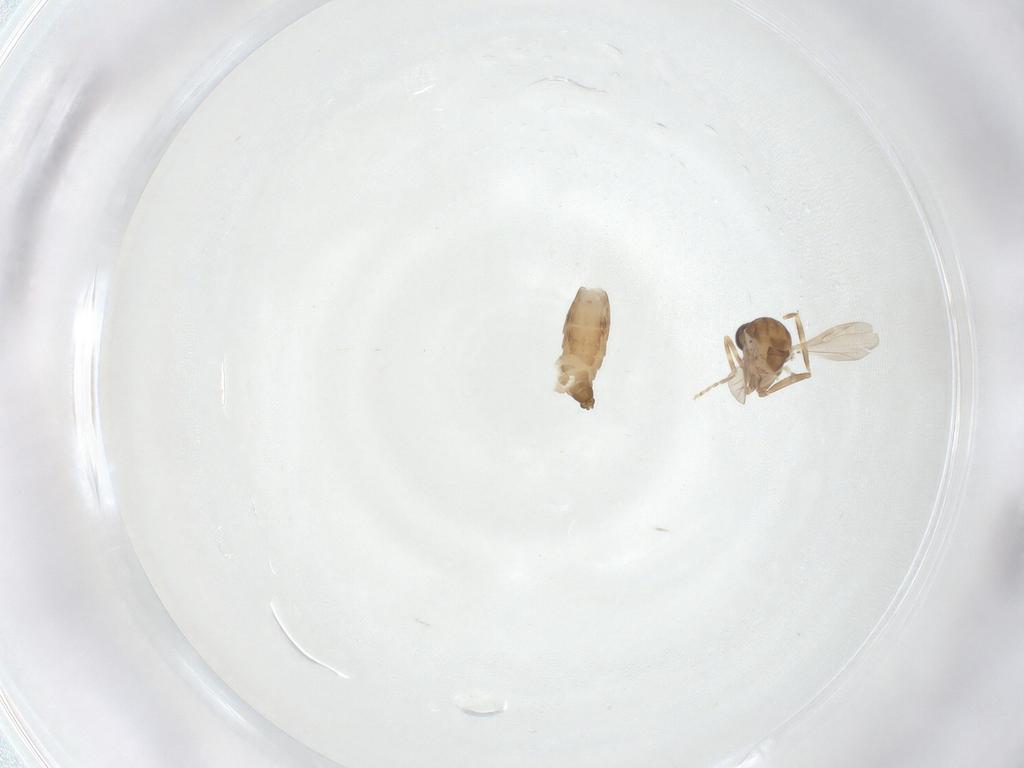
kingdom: Animalia
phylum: Arthropoda
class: Insecta
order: Diptera
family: Ceratopogonidae
